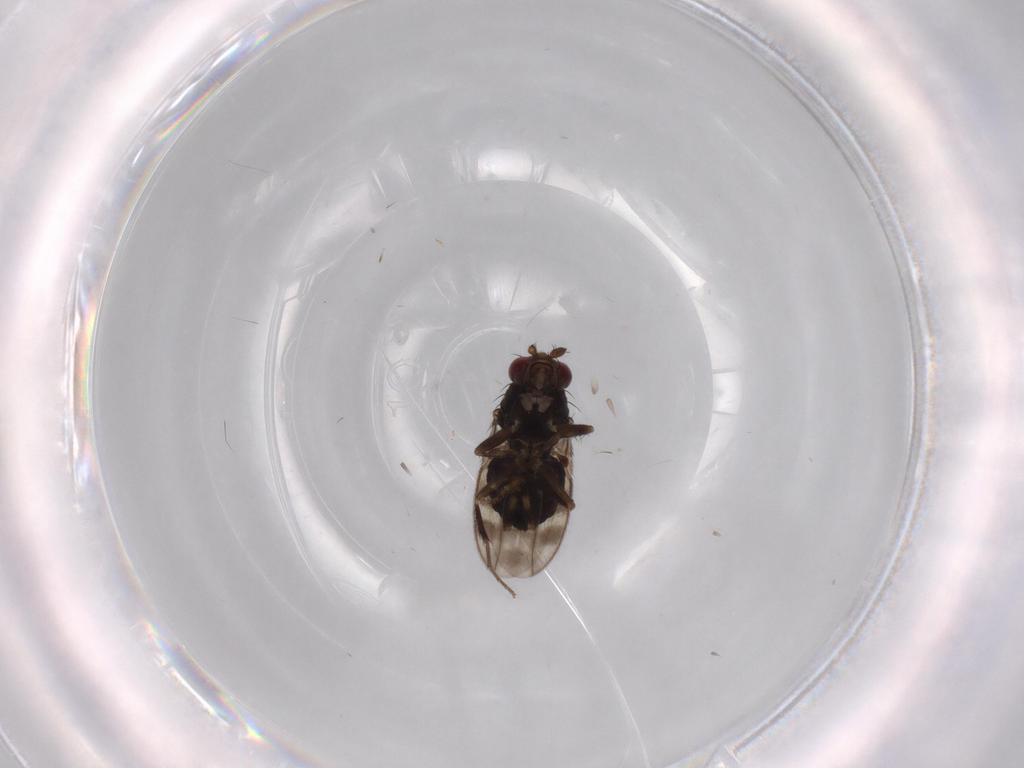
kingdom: Animalia
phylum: Arthropoda
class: Insecta
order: Diptera
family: Sphaeroceridae
